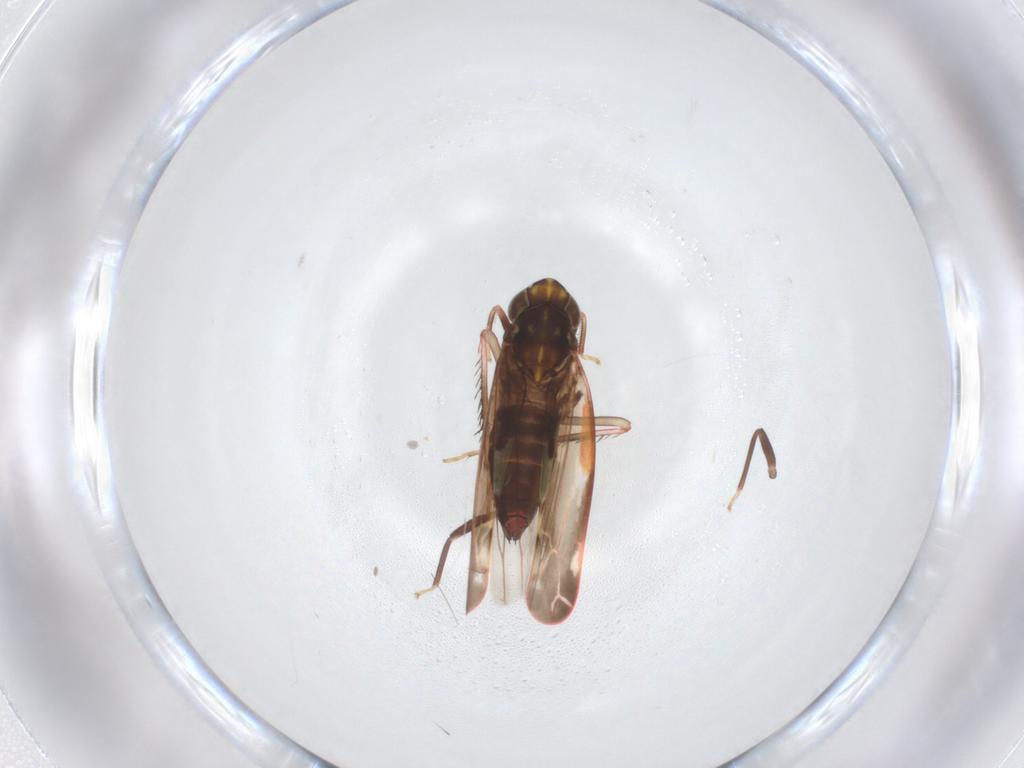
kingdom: Animalia
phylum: Arthropoda
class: Insecta
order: Hemiptera
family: Cicadellidae
